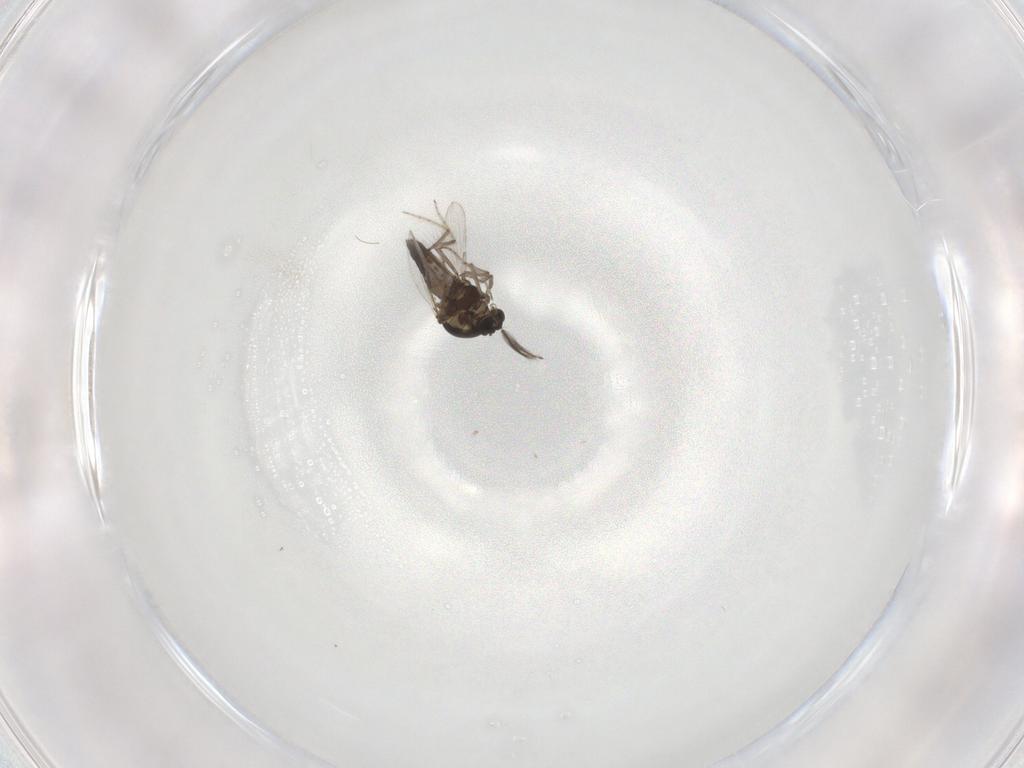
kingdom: Animalia
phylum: Arthropoda
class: Insecta
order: Diptera
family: Ceratopogonidae
